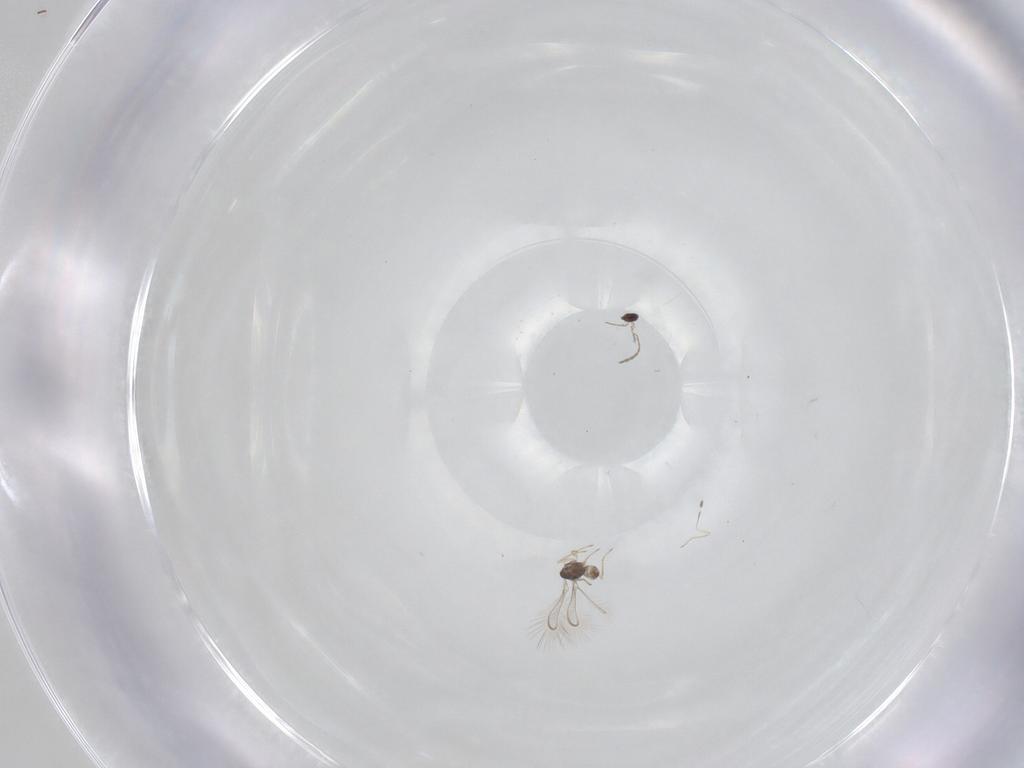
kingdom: Animalia
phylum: Arthropoda
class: Insecta
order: Hymenoptera
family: Mymaridae
